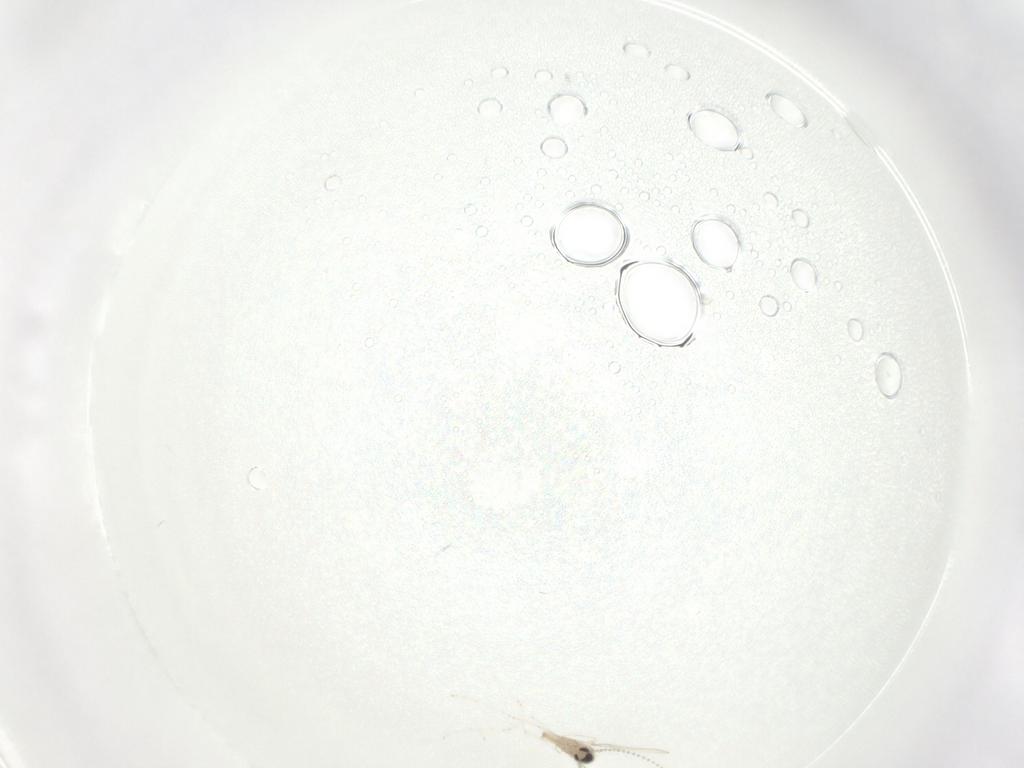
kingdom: Animalia
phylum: Arthropoda
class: Insecta
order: Diptera
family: Cecidomyiidae
